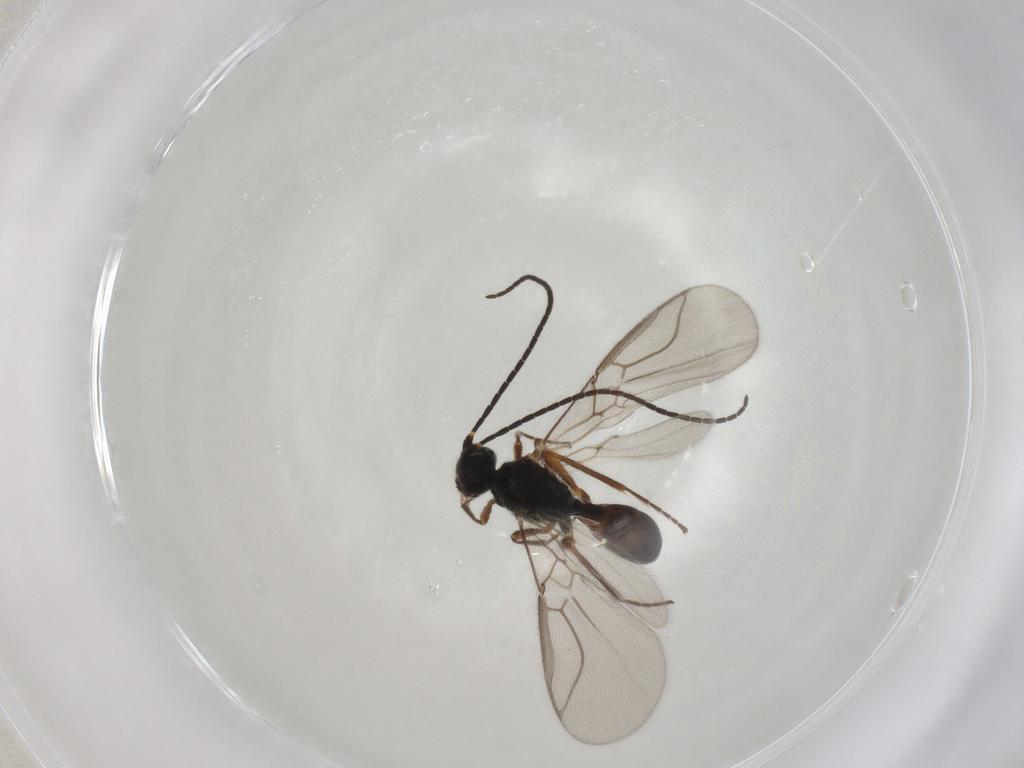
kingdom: Animalia
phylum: Arthropoda
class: Insecta
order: Hymenoptera
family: Braconidae
